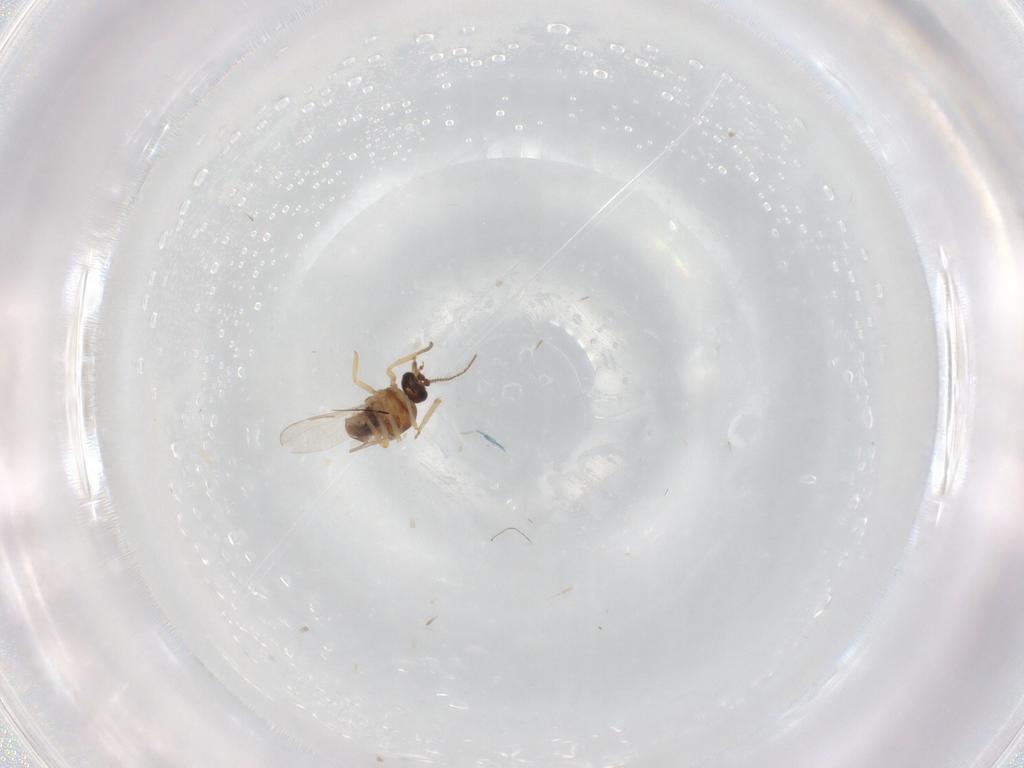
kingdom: Animalia
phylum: Arthropoda
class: Insecta
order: Diptera
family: Ceratopogonidae
